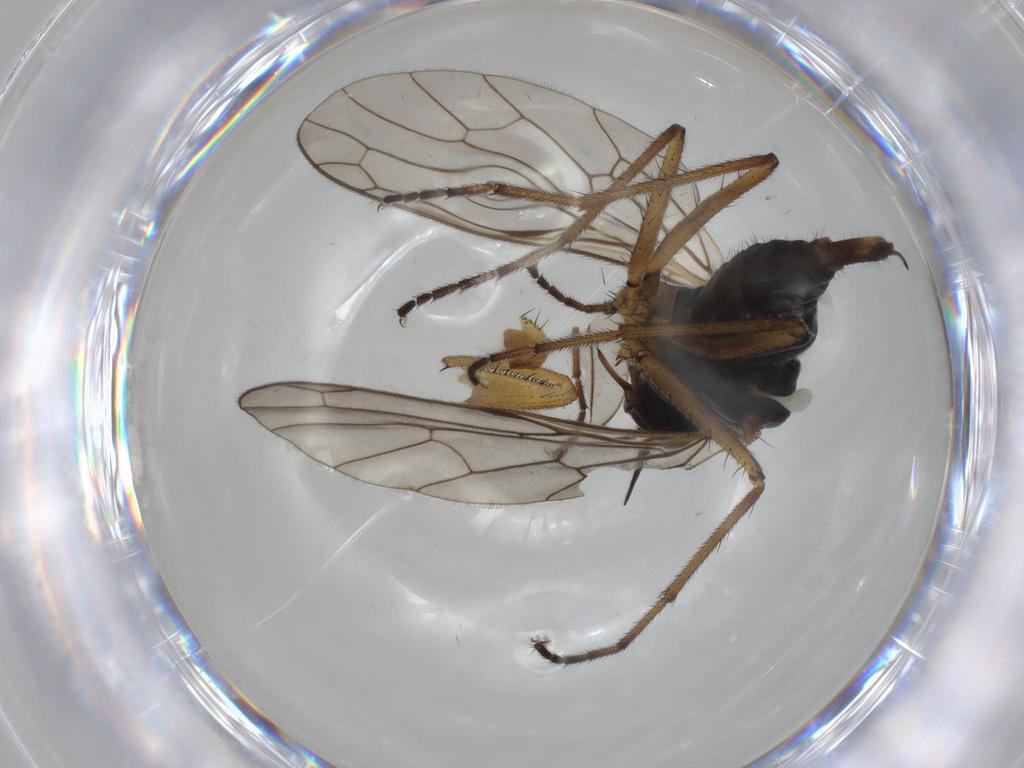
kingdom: Animalia
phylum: Arthropoda
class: Insecta
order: Diptera
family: Empididae
